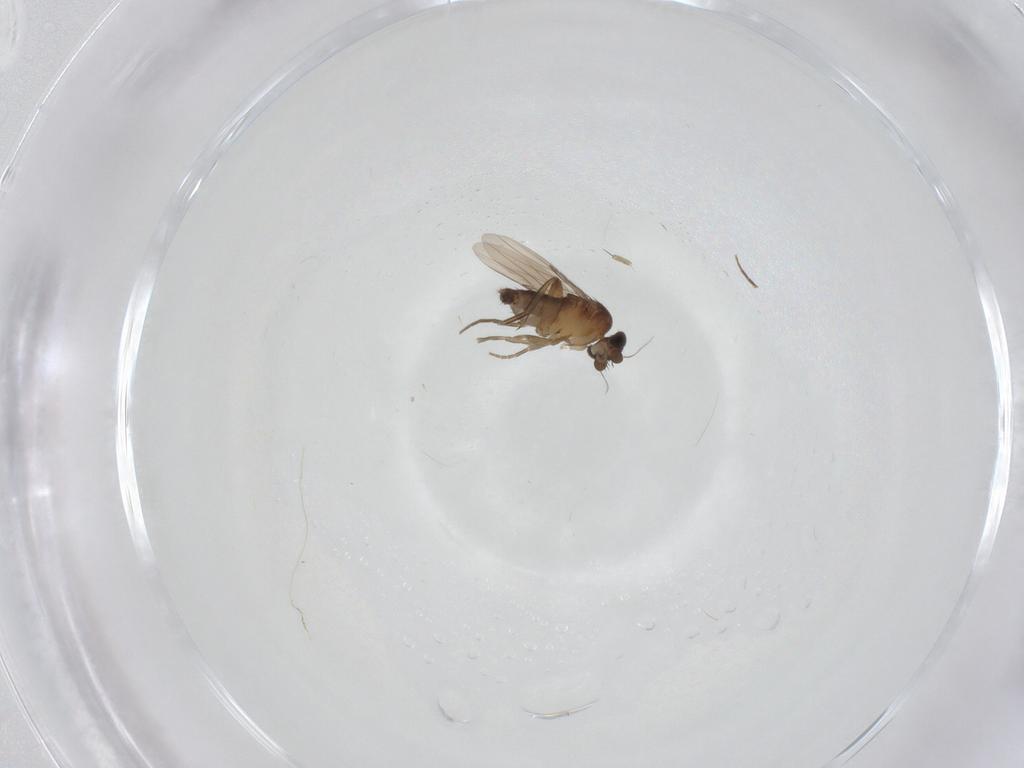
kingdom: Animalia
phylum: Arthropoda
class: Insecta
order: Diptera
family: Phoridae
